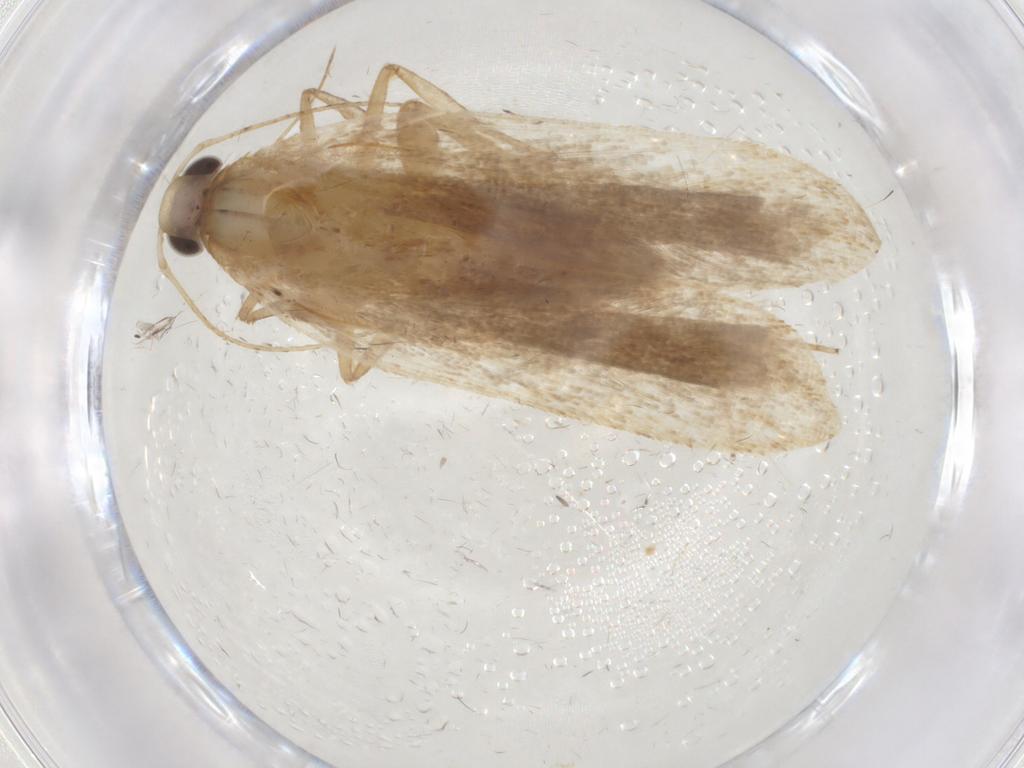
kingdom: Animalia
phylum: Arthropoda
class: Insecta
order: Lepidoptera
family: Gelechiidae
